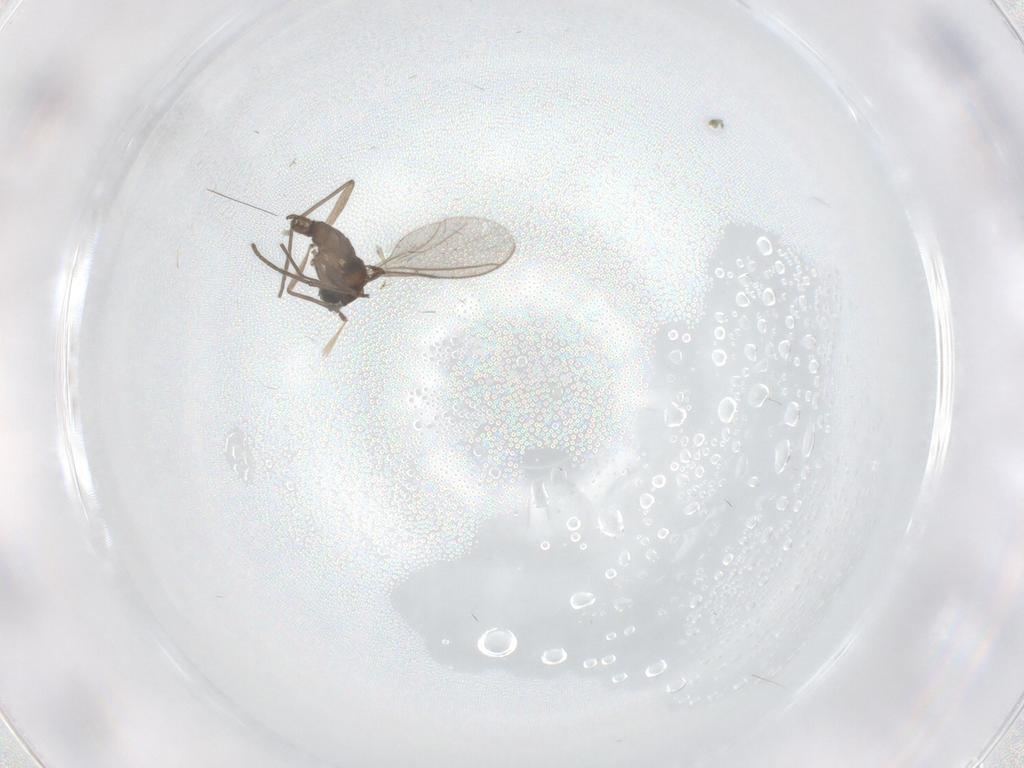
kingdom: Animalia
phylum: Arthropoda
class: Insecta
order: Diptera
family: Sciaridae
